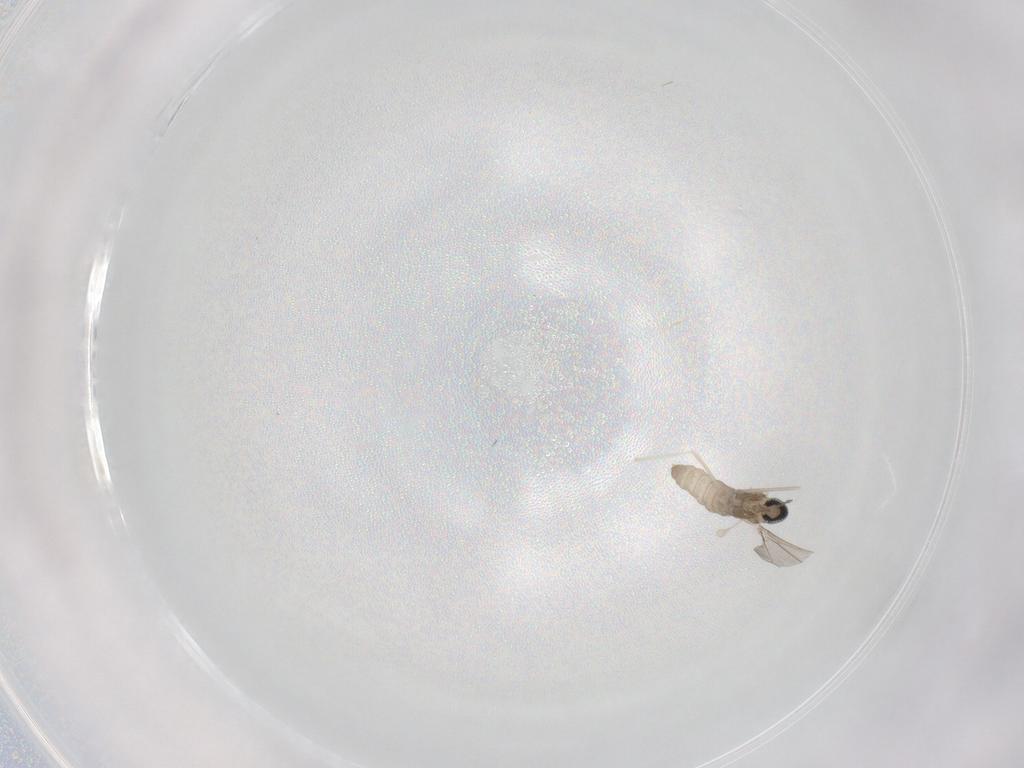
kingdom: Animalia
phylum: Arthropoda
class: Insecta
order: Diptera
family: Cecidomyiidae
